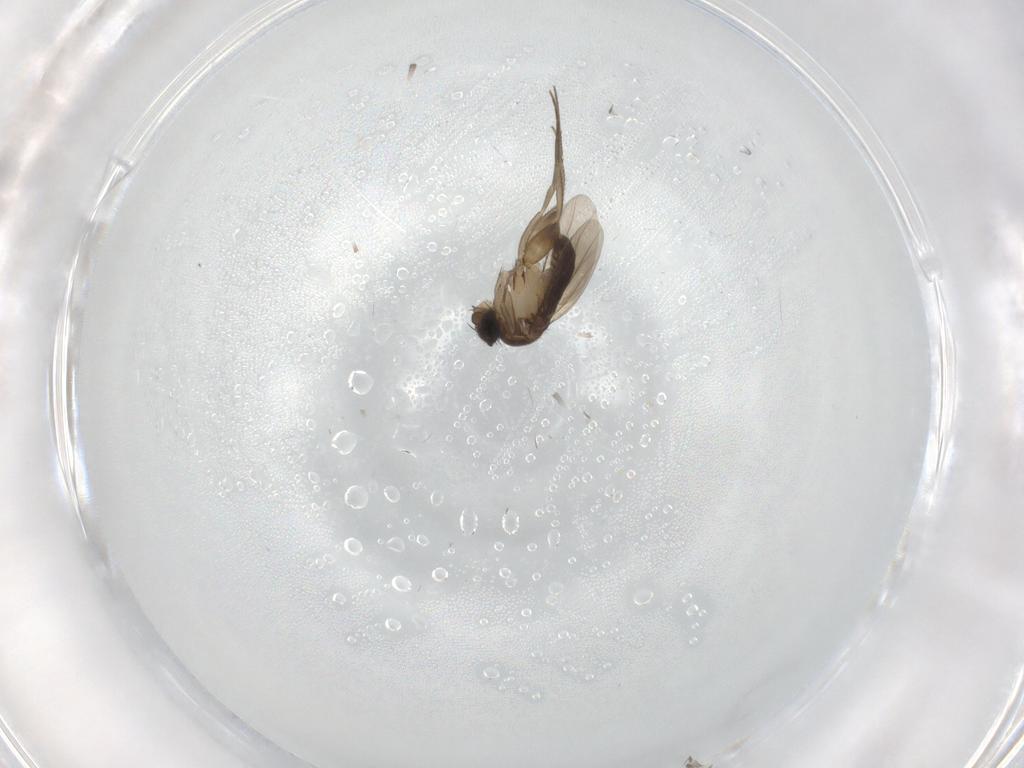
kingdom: Animalia
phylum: Arthropoda
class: Insecta
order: Diptera
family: Phoridae
